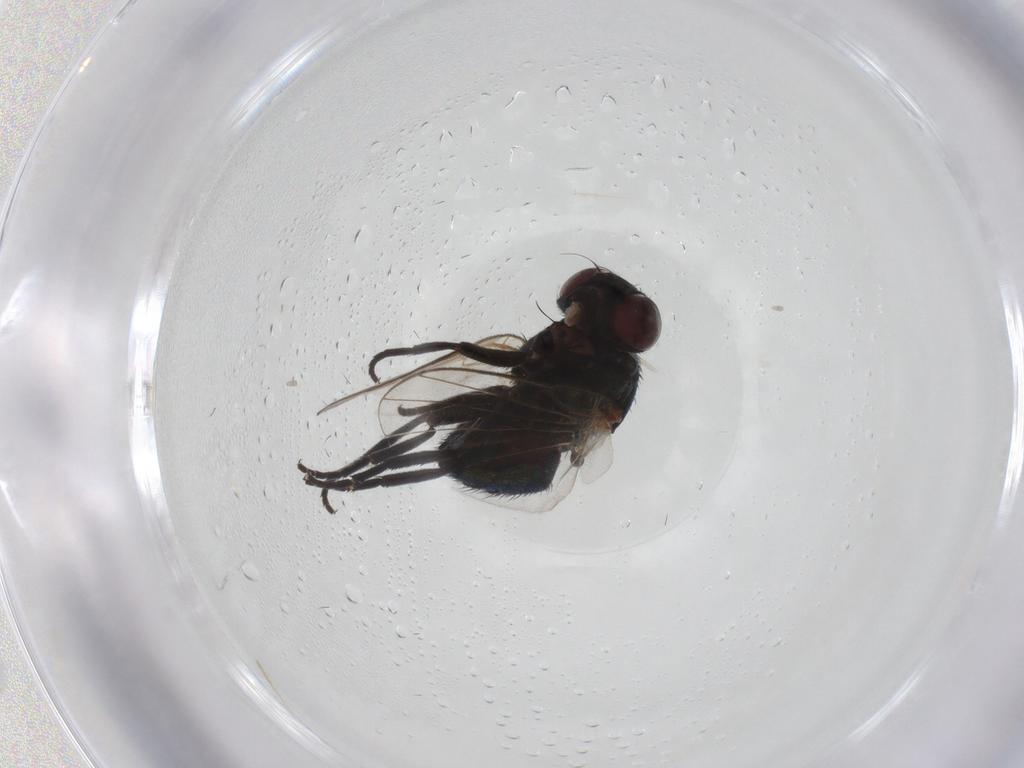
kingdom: Animalia
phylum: Arthropoda
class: Insecta
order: Diptera
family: Agromyzidae
